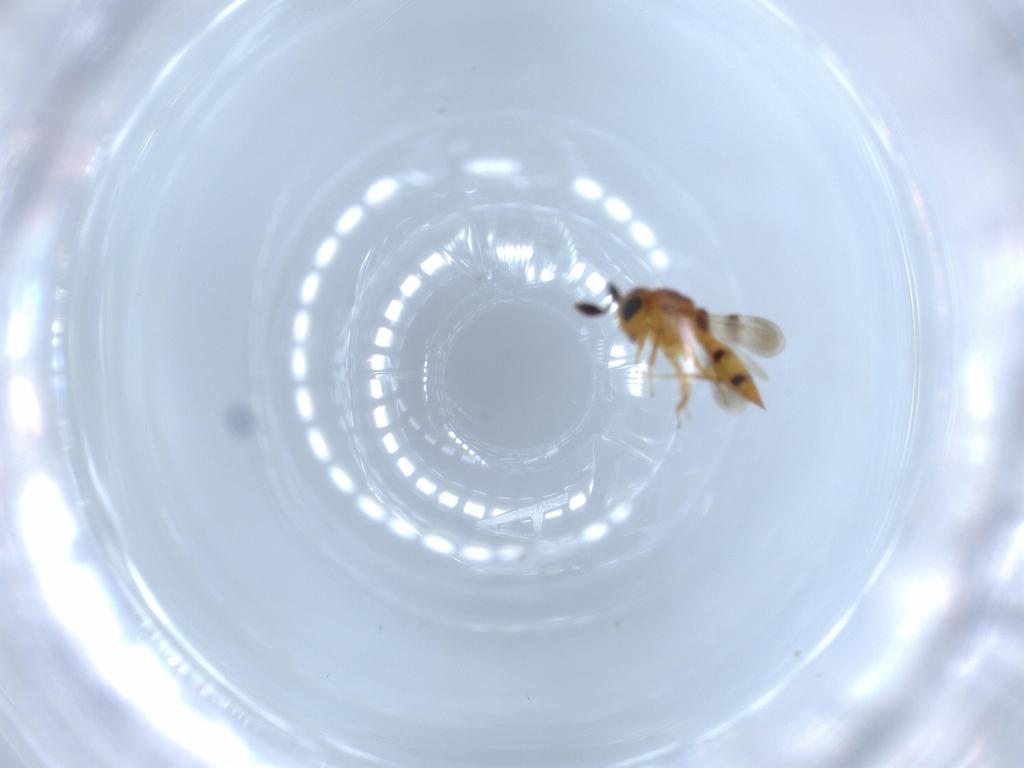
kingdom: Animalia
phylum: Arthropoda
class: Insecta
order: Hymenoptera
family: Scelionidae
